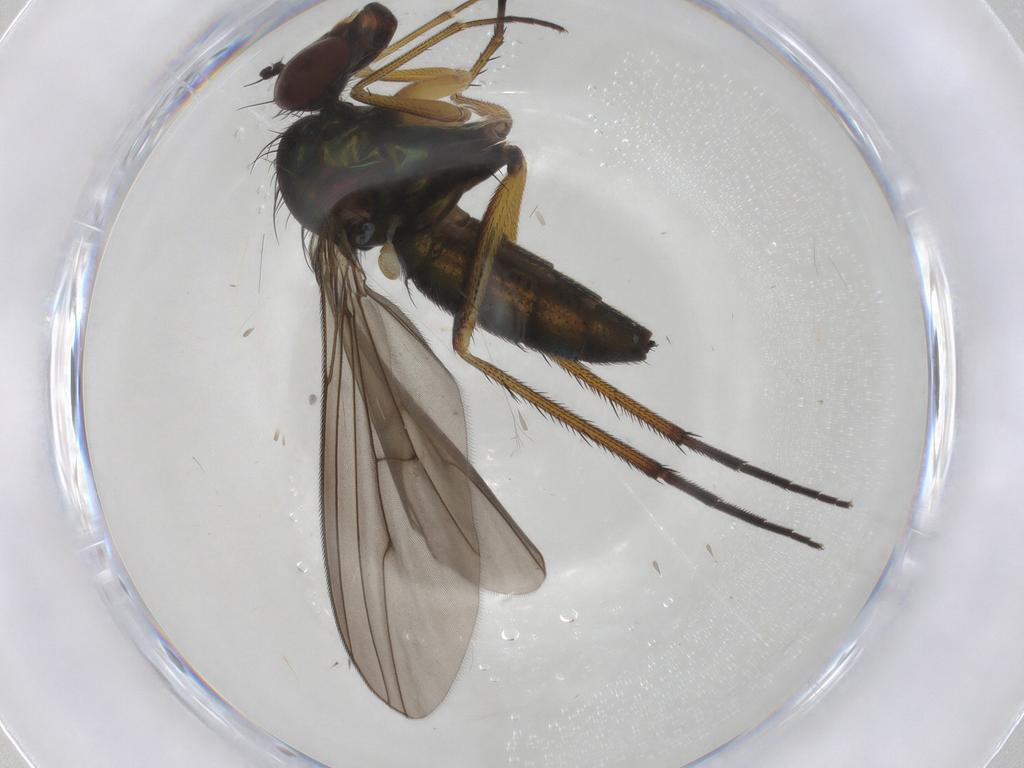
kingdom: Animalia
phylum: Arthropoda
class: Insecta
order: Diptera
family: Dolichopodidae
